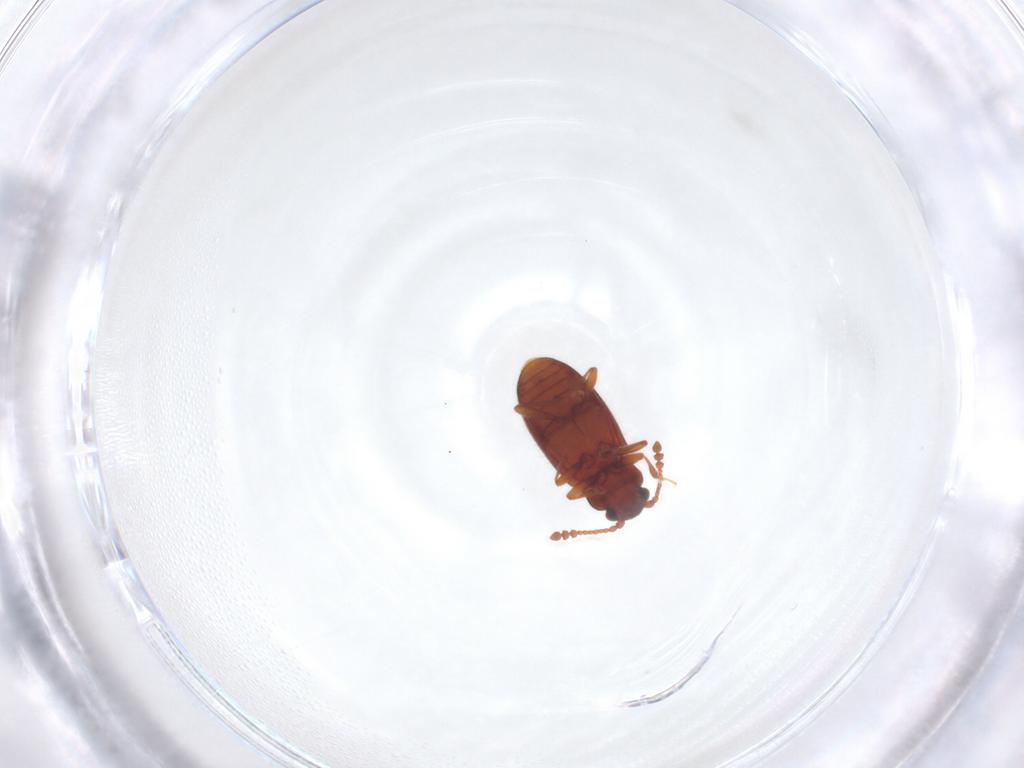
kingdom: Animalia
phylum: Arthropoda
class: Insecta
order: Coleoptera
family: Cryptophagidae
